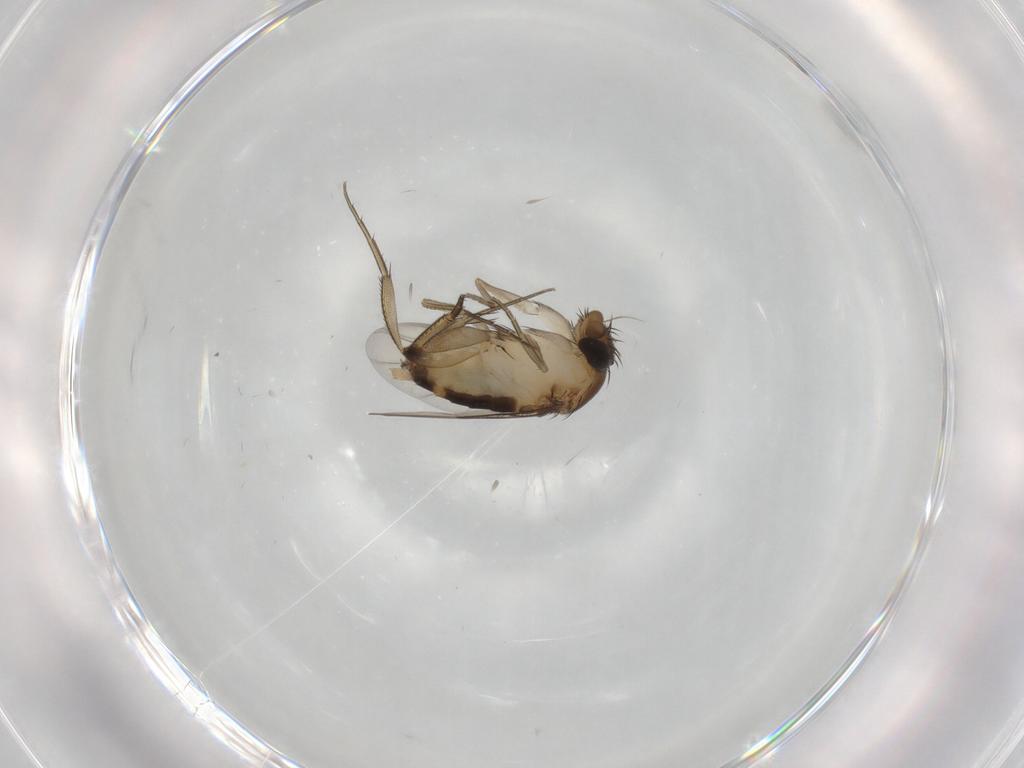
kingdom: Animalia
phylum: Arthropoda
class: Insecta
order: Diptera
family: Phoridae
